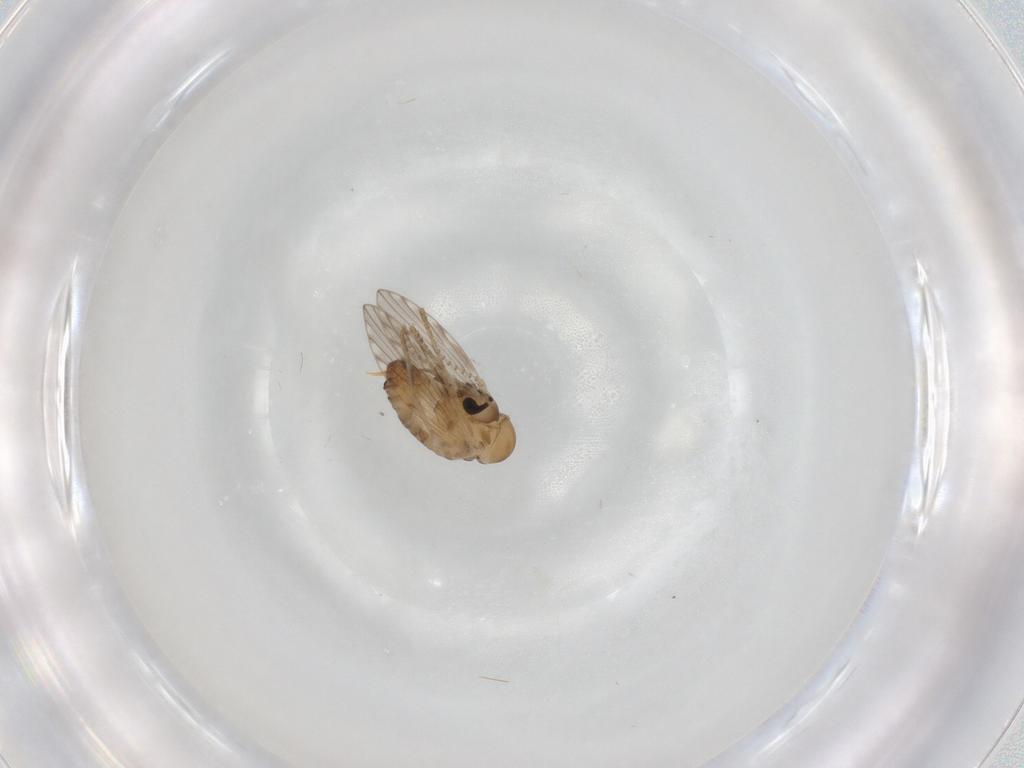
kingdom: Animalia
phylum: Arthropoda
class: Insecta
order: Diptera
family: Psychodidae
